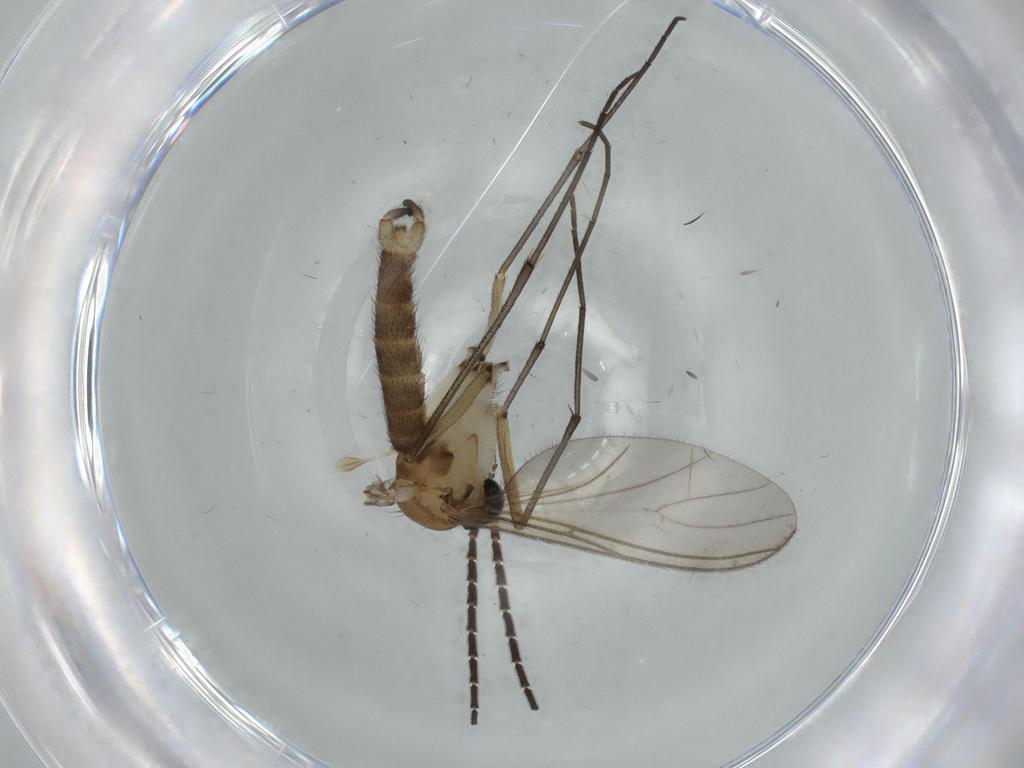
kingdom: Animalia
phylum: Arthropoda
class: Insecta
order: Diptera
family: Sciaridae
